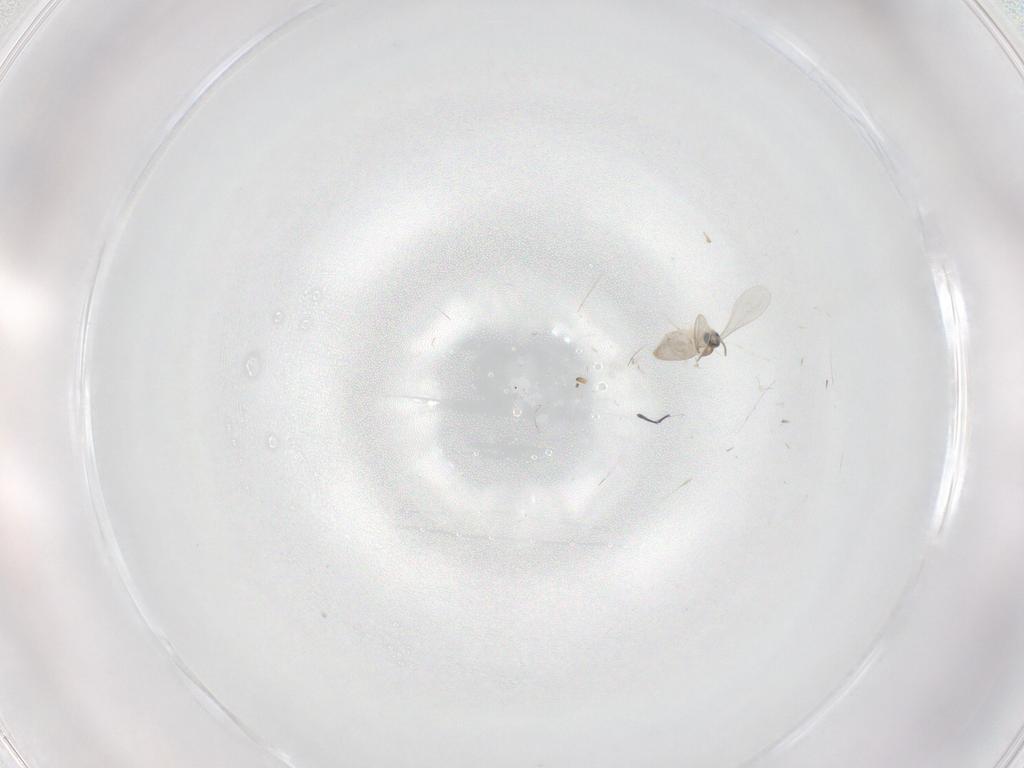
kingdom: Animalia
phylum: Arthropoda
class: Insecta
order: Diptera
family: Cecidomyiidae
